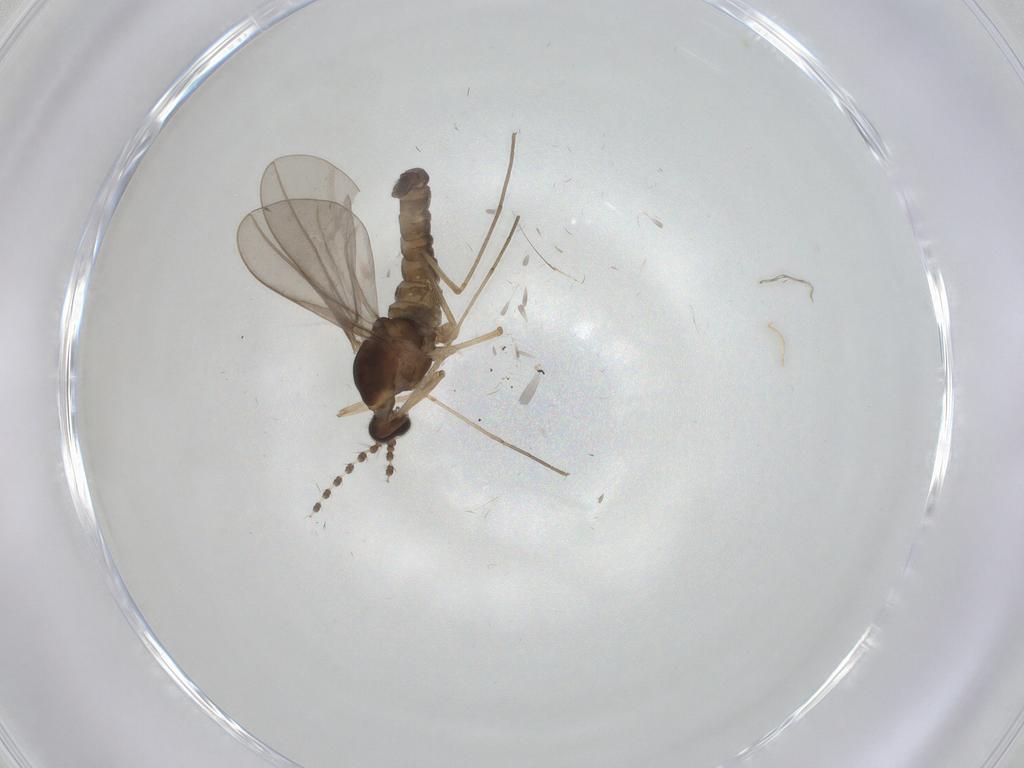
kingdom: Animalia
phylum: Arthropoda
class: Insecta
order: Diptera
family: Cecidomyiidae
